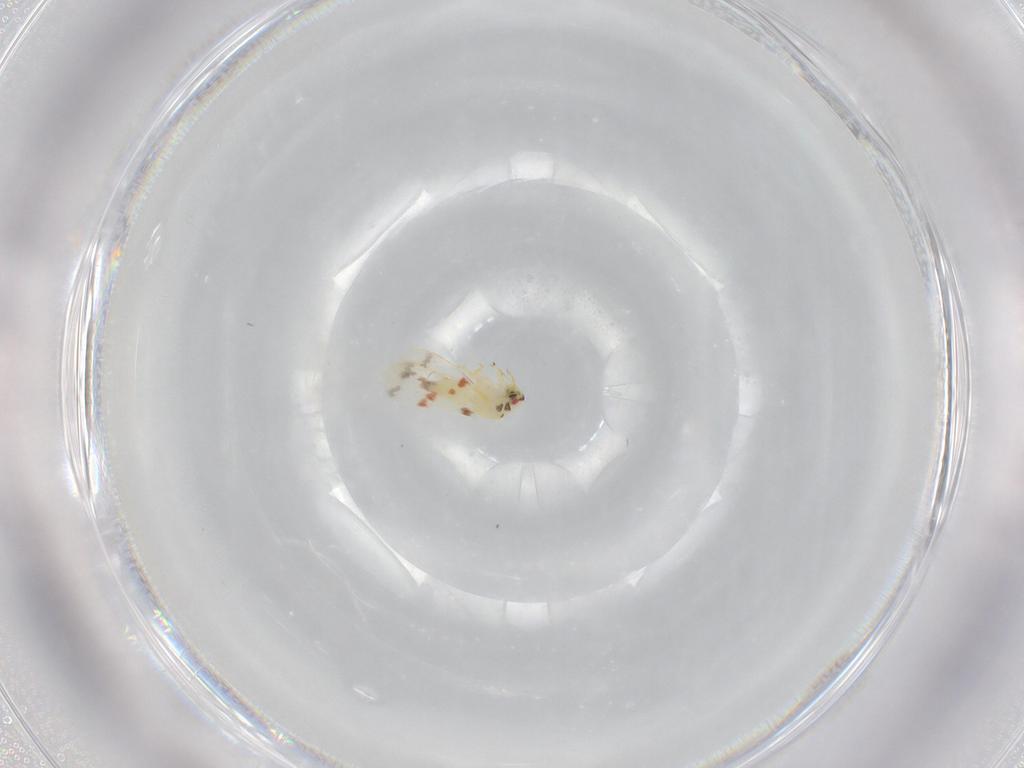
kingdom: Animalia
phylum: Arthropoda
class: Insecta
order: Hemiptera
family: Aleyrodidae
